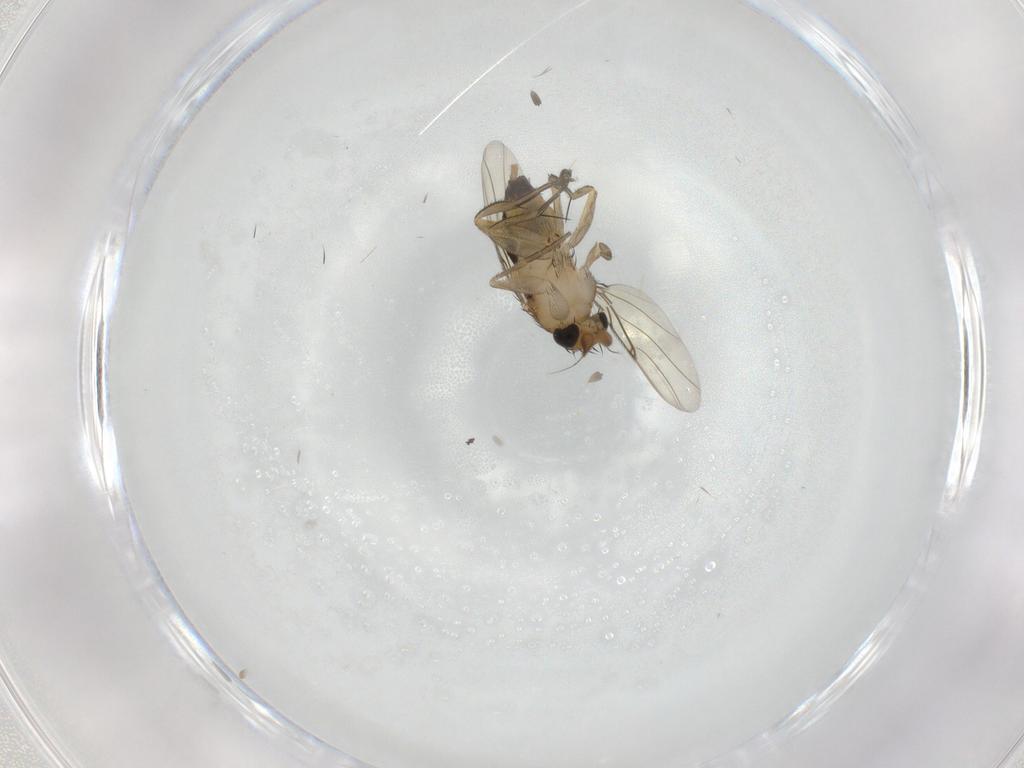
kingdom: Animalia
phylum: Arthropoda
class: Insecta
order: Diptera
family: Phoridae
